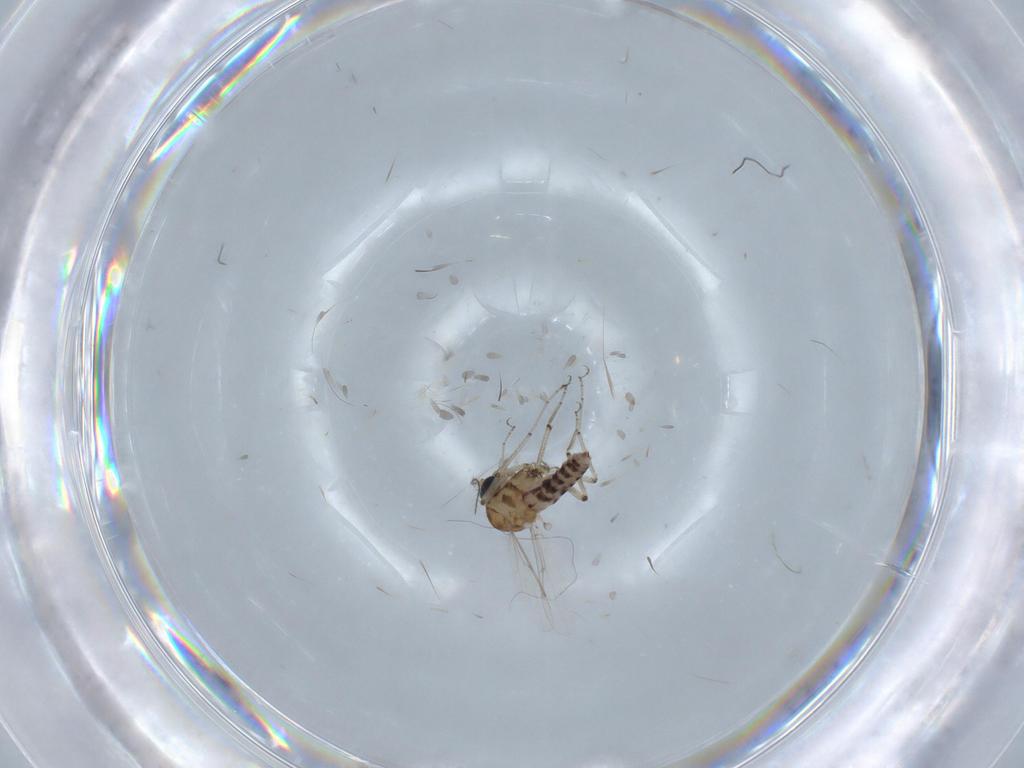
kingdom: Animalia
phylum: Arthropoda
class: Insecta
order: Diptera
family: Ceratopogonidae
